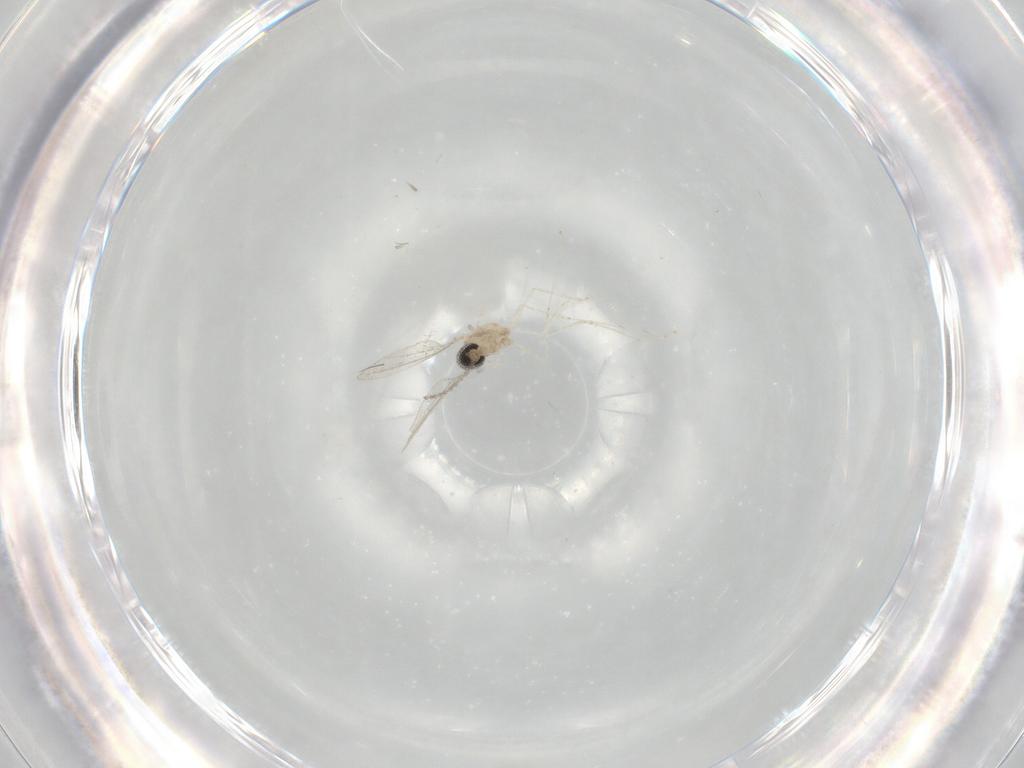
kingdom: Animalia
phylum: Arthropoda
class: Insecta
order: Diptera
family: Cecidomyiidae
